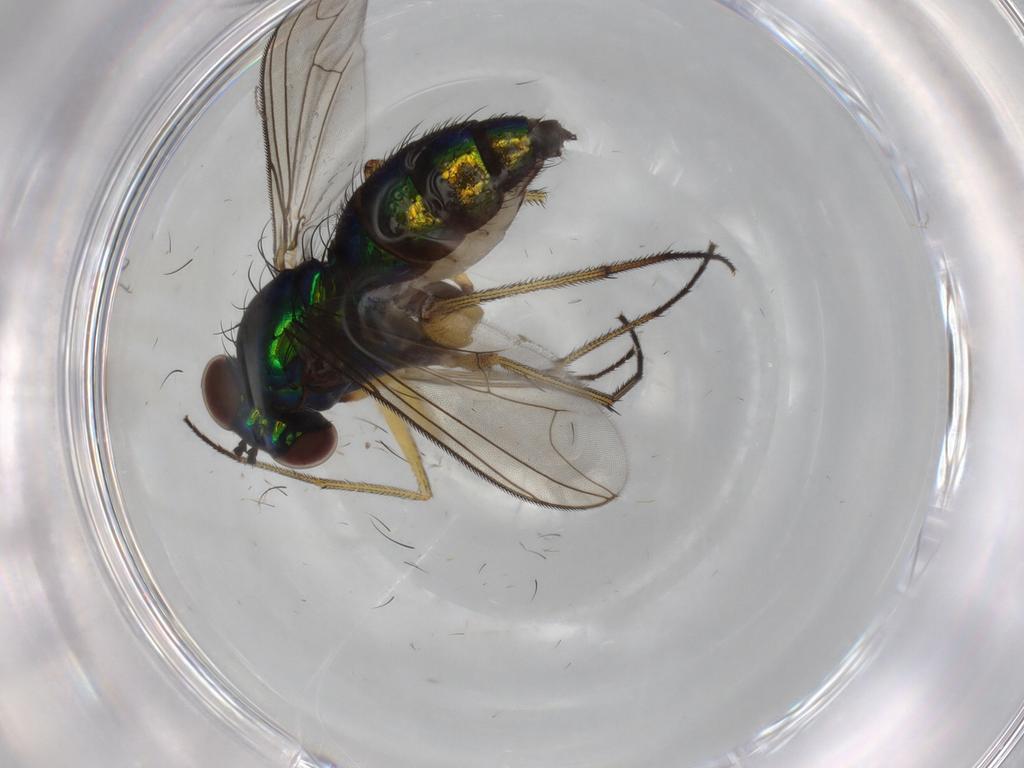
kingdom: Animalia
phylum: Arthropoda
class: Insecta
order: Diptera
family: Dolichopodidae
